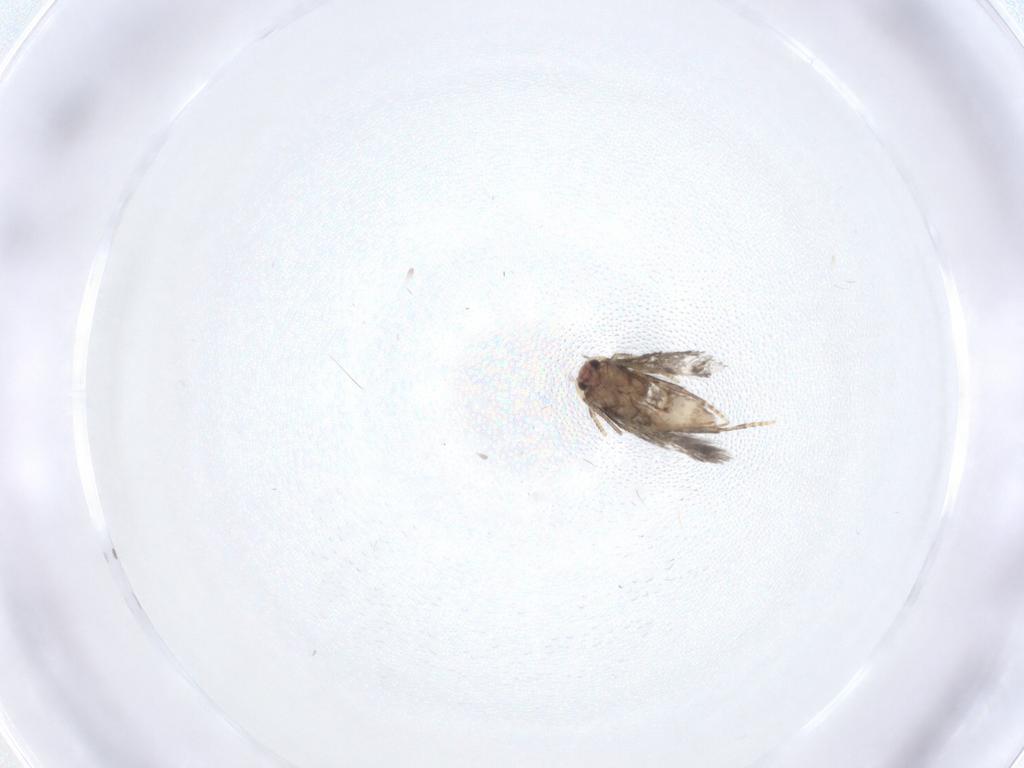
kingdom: Animalia
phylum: Arthropoda
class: Insecta
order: Lepidoptera
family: Nepticulidae
